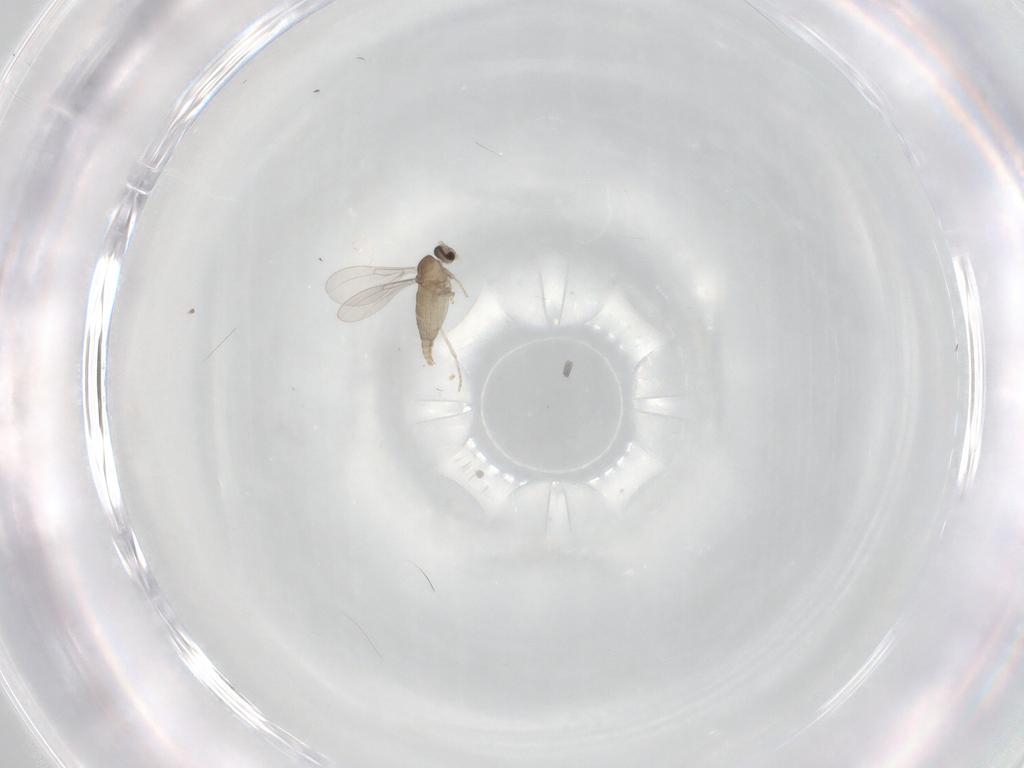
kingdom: Animalia
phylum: Arthropoda
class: Insecta
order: Diptera
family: Cecidomyiidae
